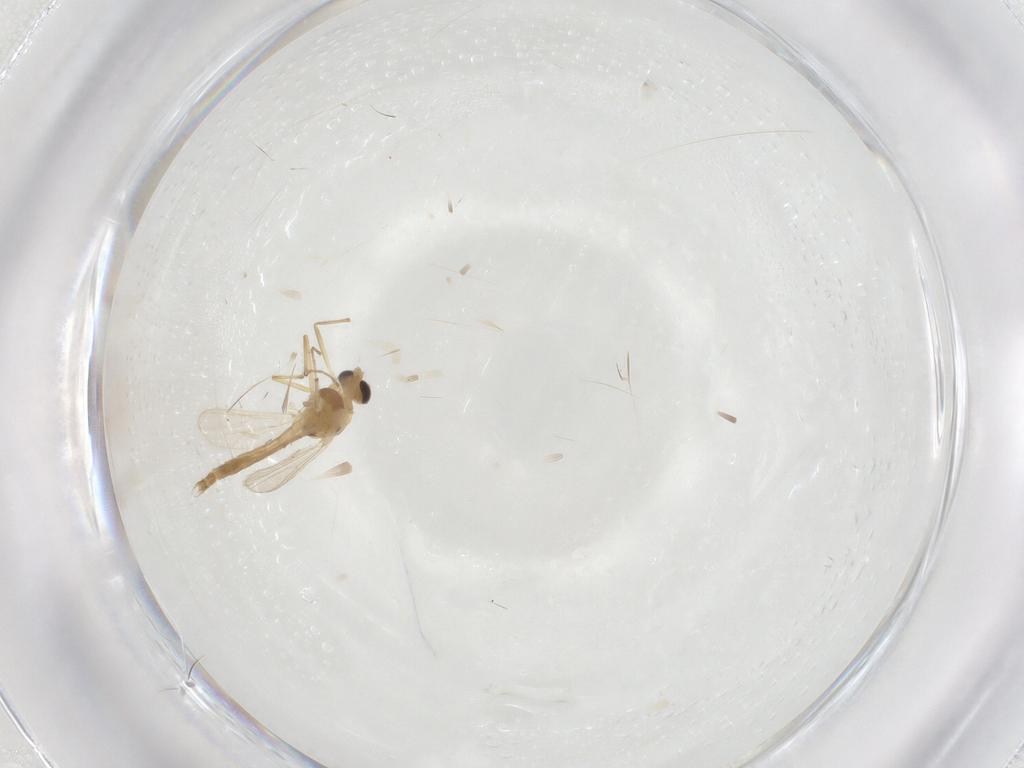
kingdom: Animalia
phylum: Arthropoda
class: Insecta
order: Diptera
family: Chironomidae
